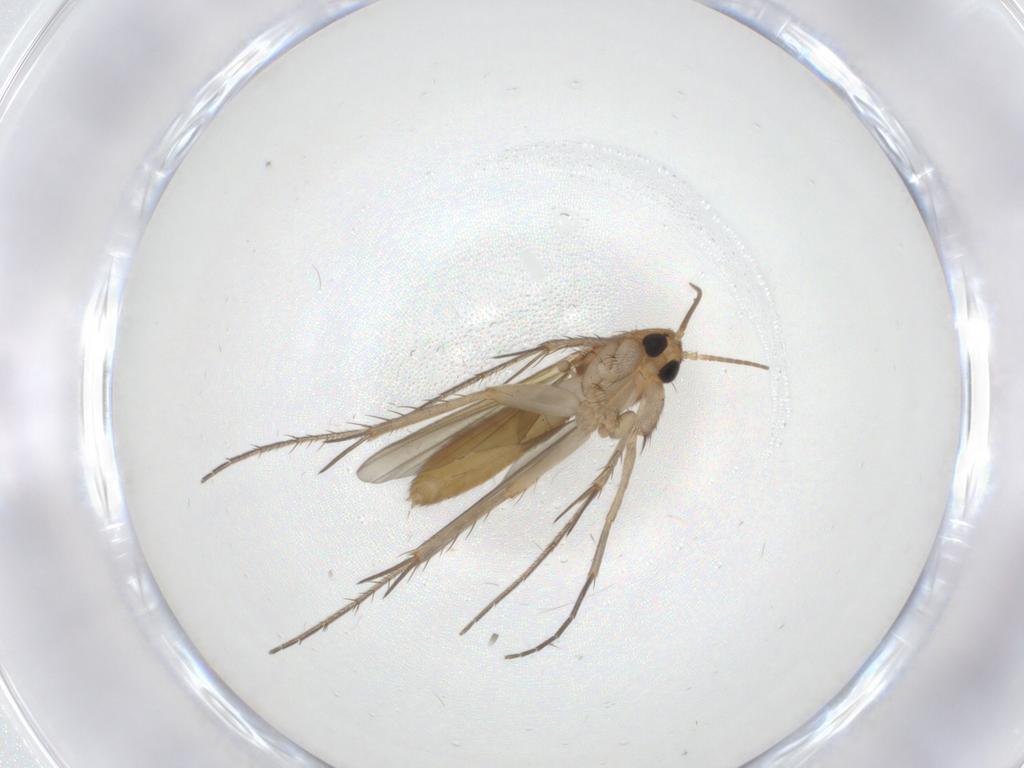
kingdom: Animalia
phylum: Arthropoda
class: Insecta
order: Diptera
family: Mycetophilidae
